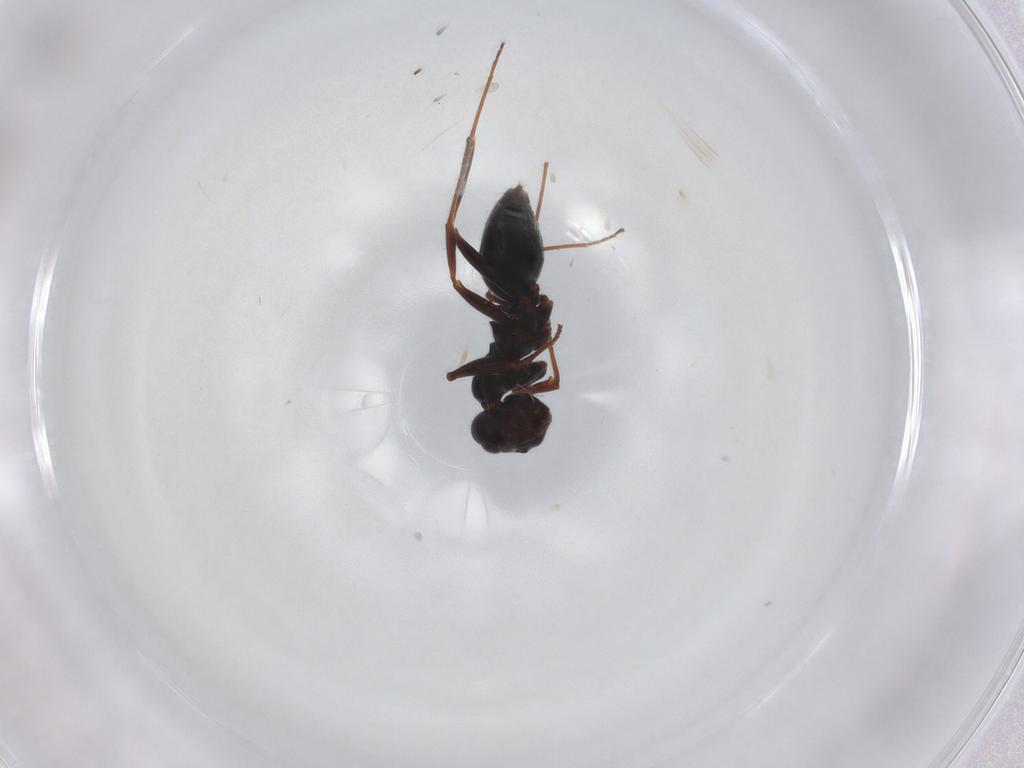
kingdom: Animalia
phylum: Arthropoda
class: Insecta
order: Hymenoptera
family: Formicidae
